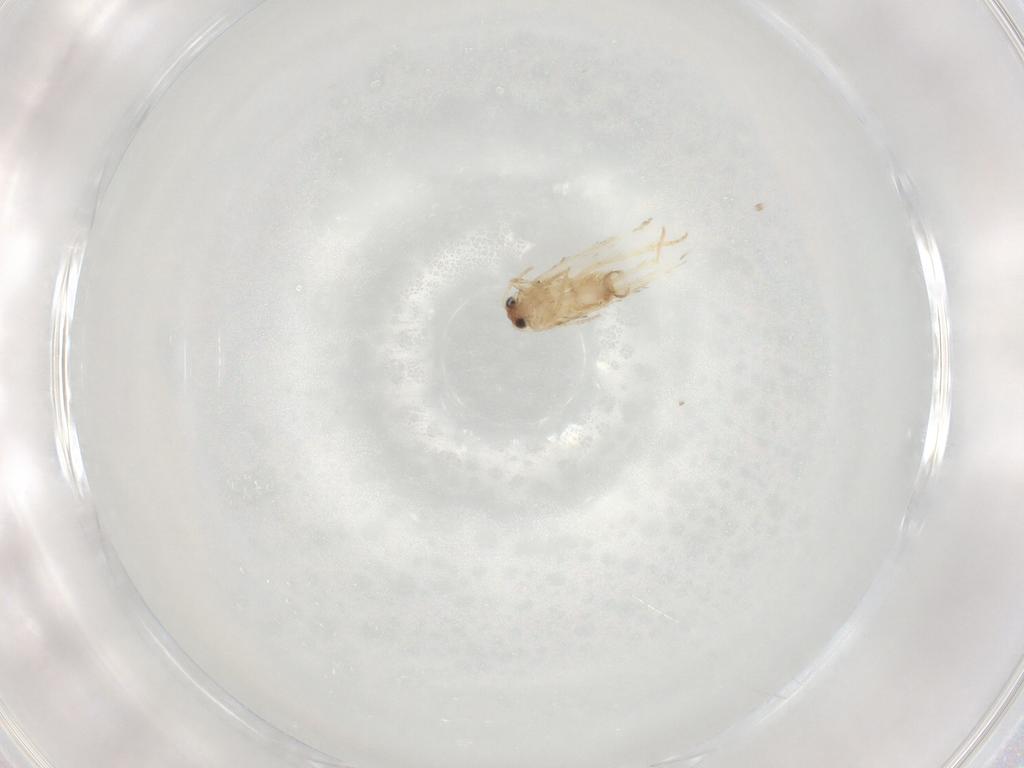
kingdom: Animalia
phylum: Arthropoda
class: Insecta
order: Lepidoptera
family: Nepticulidae
